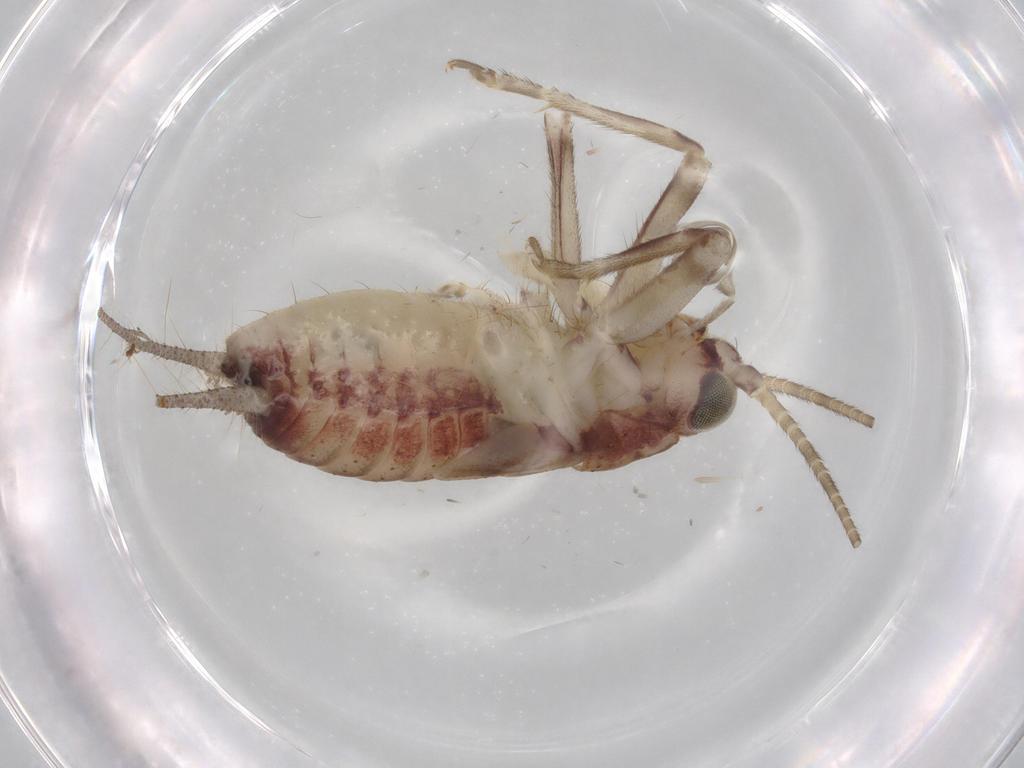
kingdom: Animalia
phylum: Arthropoda
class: Insecta
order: Orthoptera
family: Trigonidiidae
